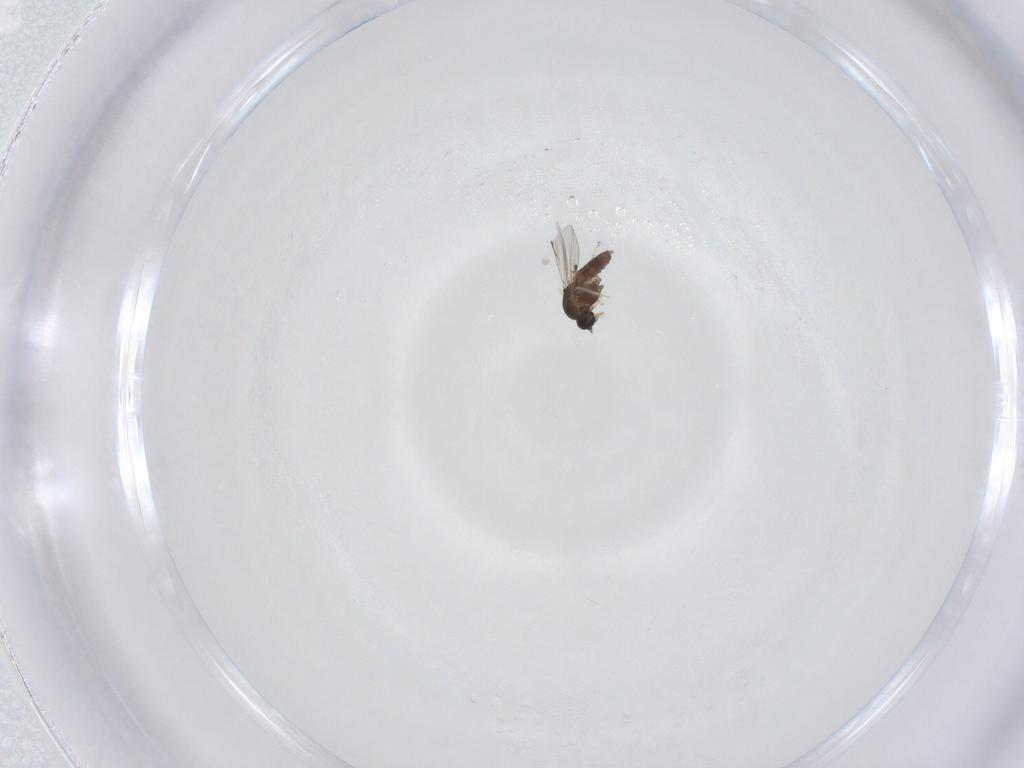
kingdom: Animalia
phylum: Arthropoda
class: Insecta
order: Diptera
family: Ceratopogonidae
